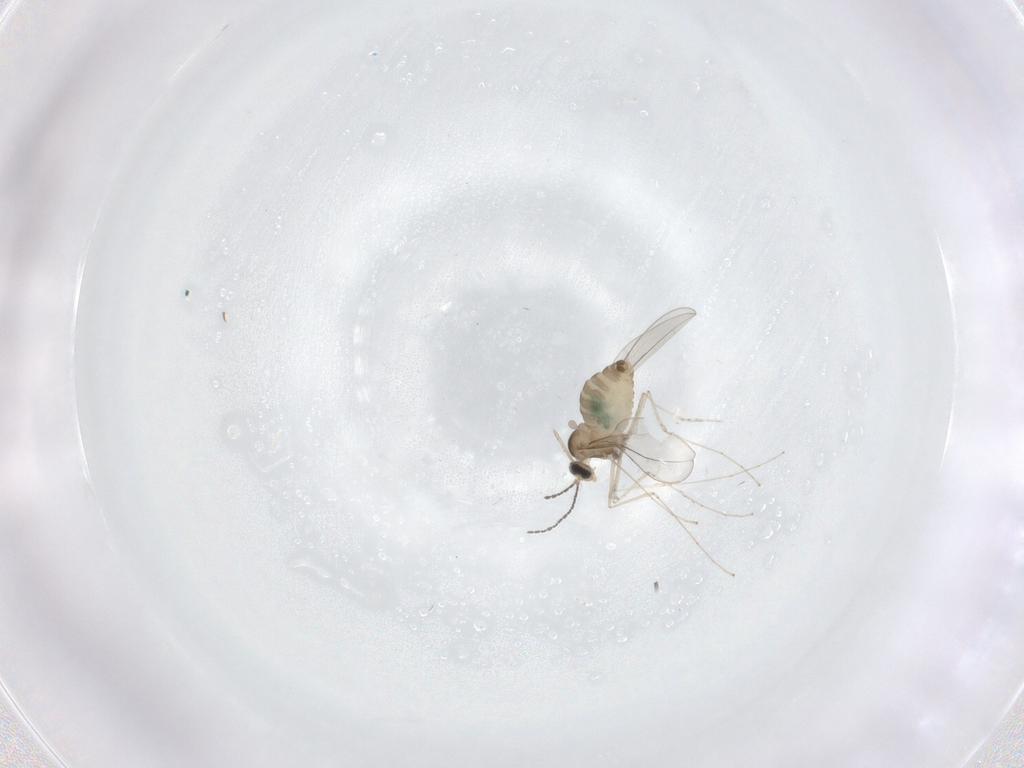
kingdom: Animalia
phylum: Arthropoda
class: Insecta
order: Diptera
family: Cecidomyiidae
